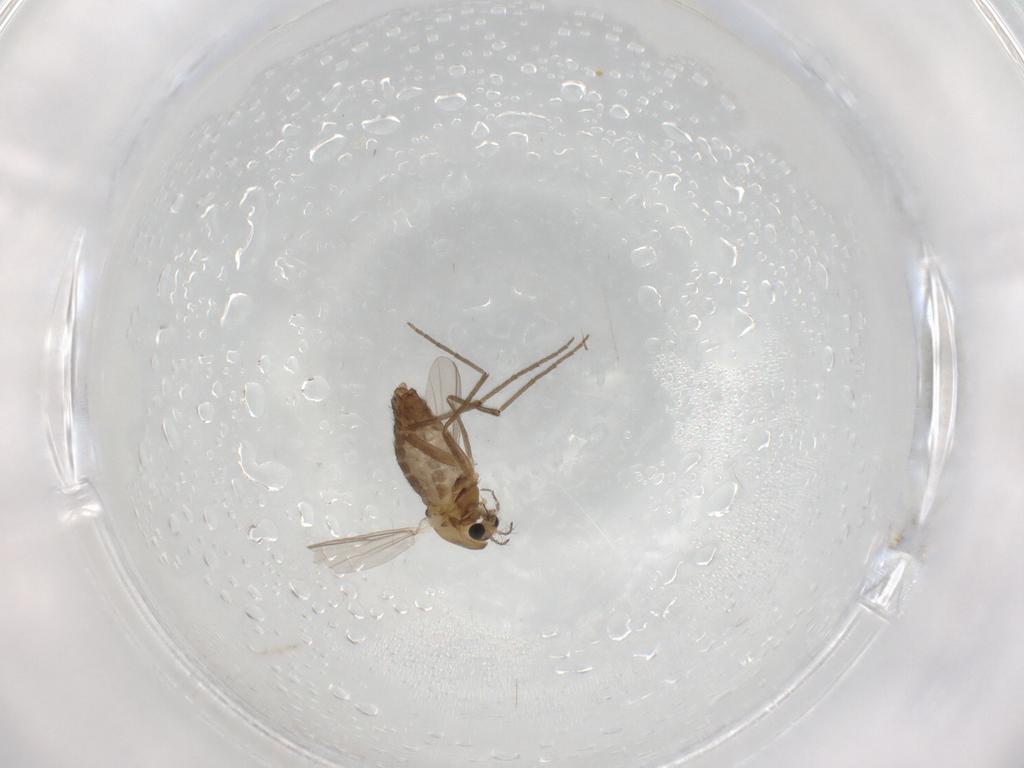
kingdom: Animalia
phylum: Arthropoda
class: Insecta
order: Diptera
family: Chironomidae
